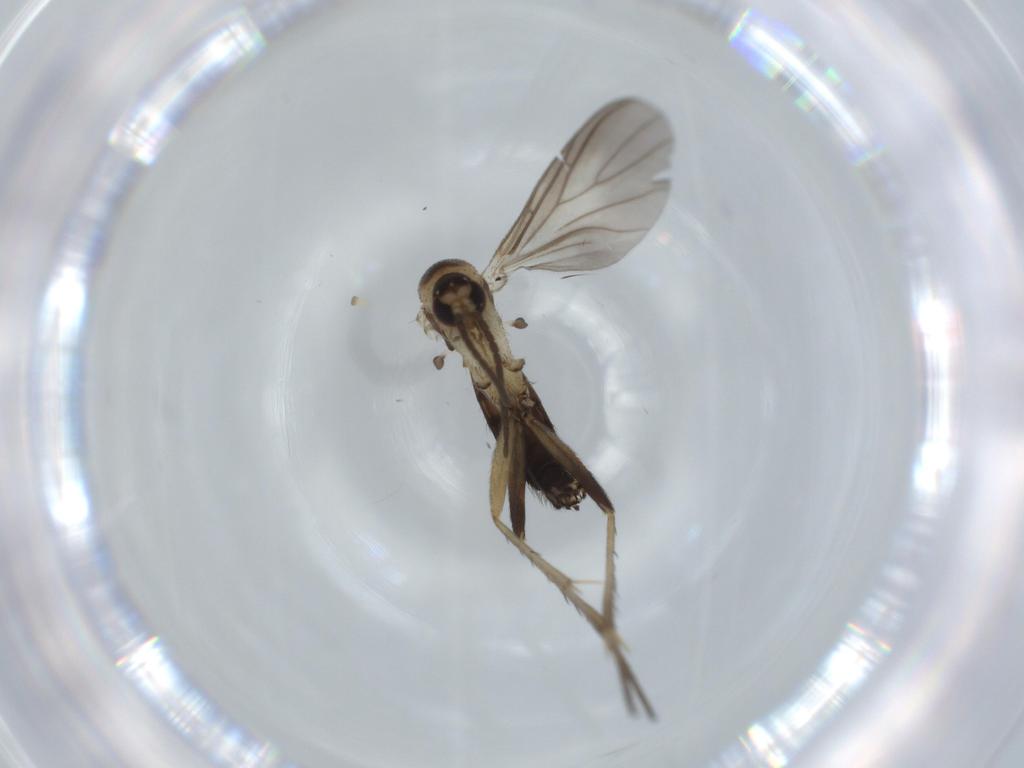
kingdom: Animalia
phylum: Arthropoda
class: Insecta
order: Diptera
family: Mycetophilidae
